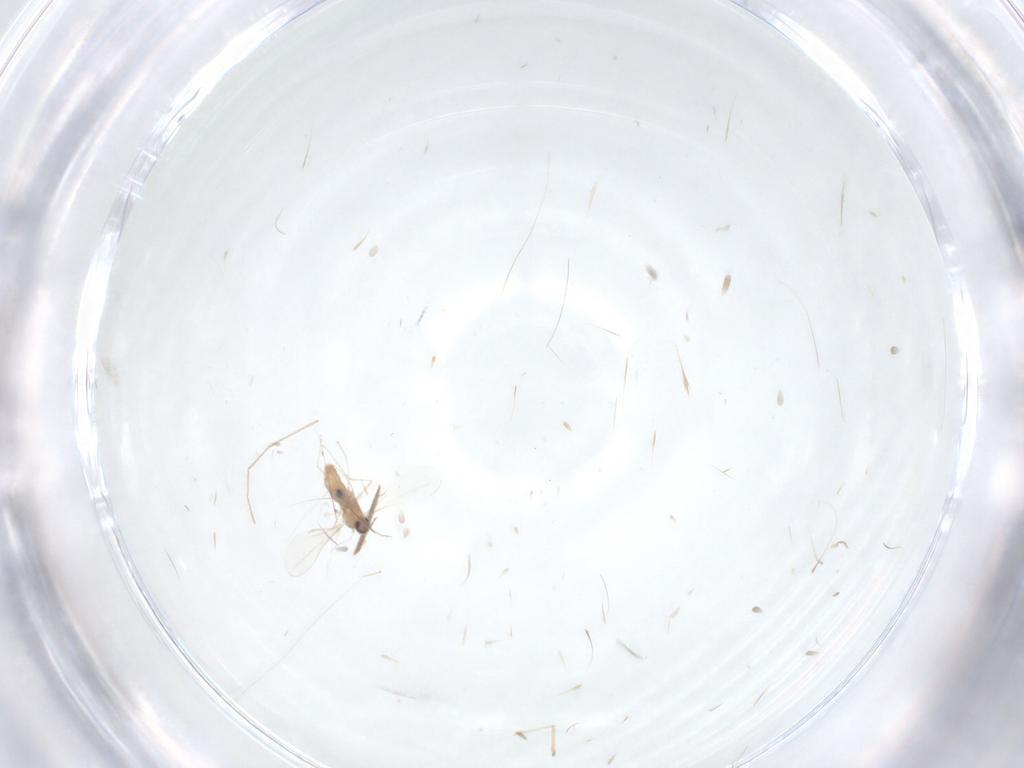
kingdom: Animalia
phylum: Arthropoda
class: Insecta
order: Diptera
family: Cecidomyiidae
